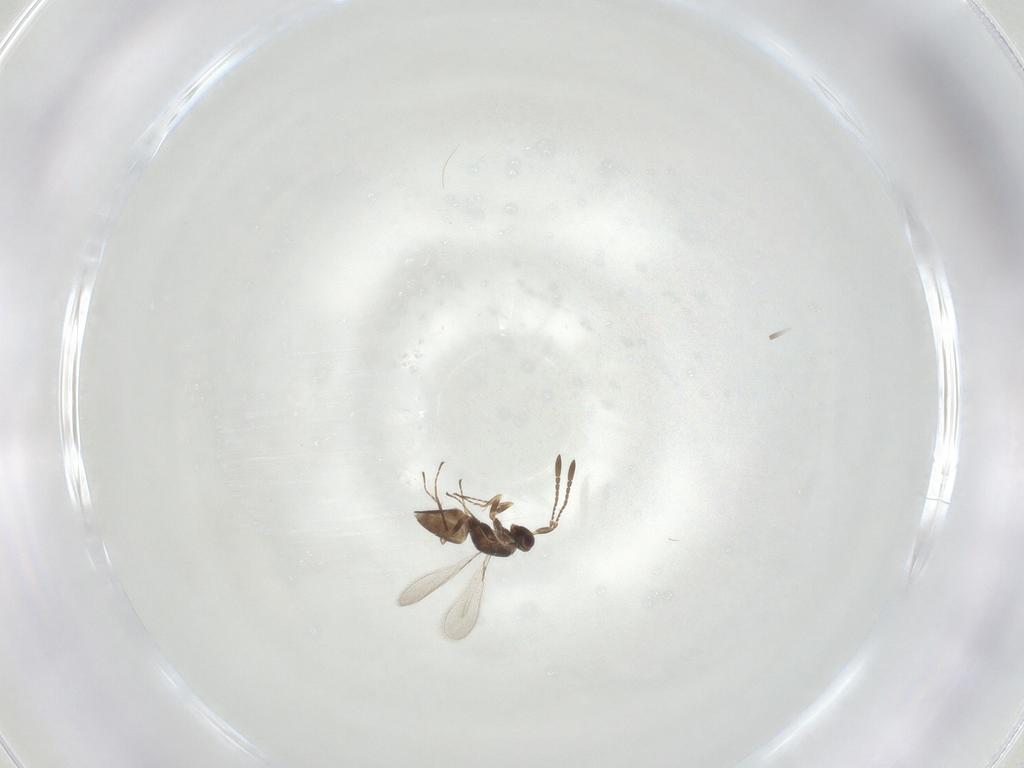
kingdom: Animalia
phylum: Arthropoda
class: Insecta
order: Hymenoptera
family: Mymaridae
